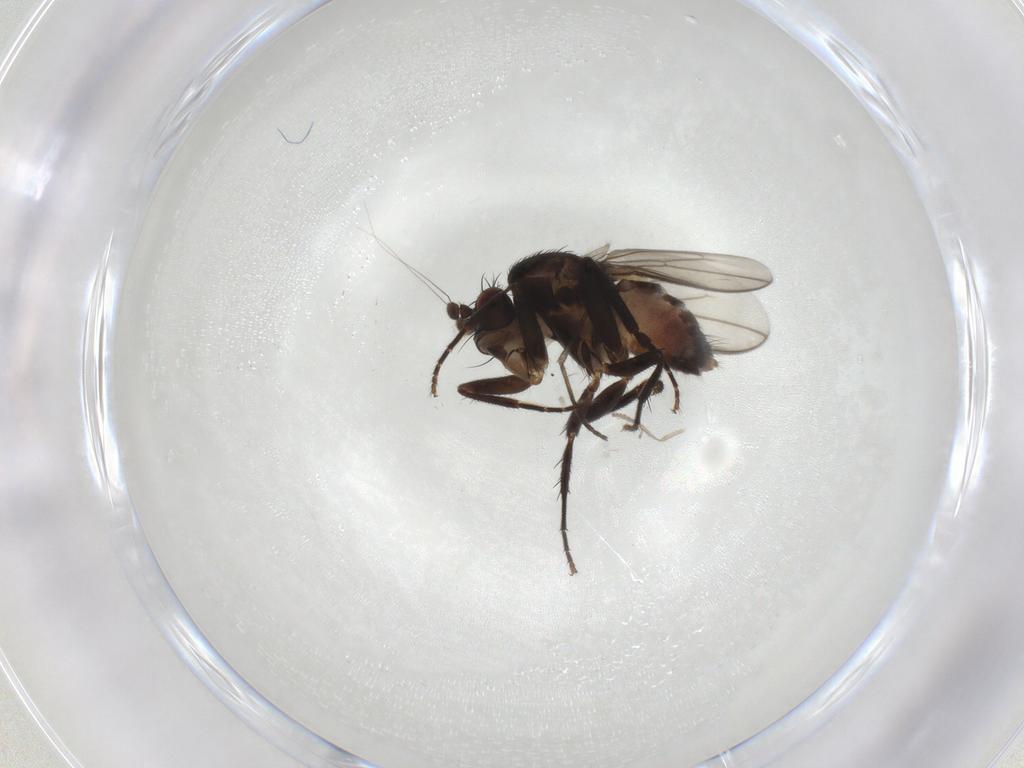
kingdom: Animalia
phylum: Arthropoda
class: Insecta
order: Diptera
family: Sphaeroceridae
